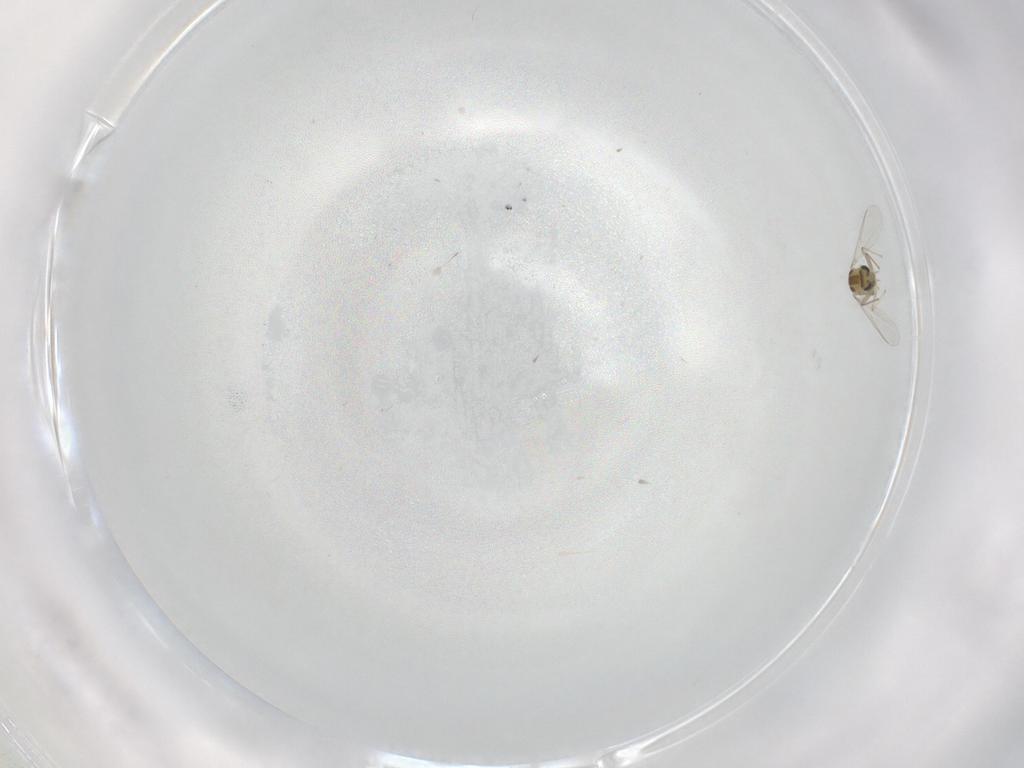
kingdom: Animalia
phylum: Arthropoda
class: Insecta
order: Diptera
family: Chironomidae
